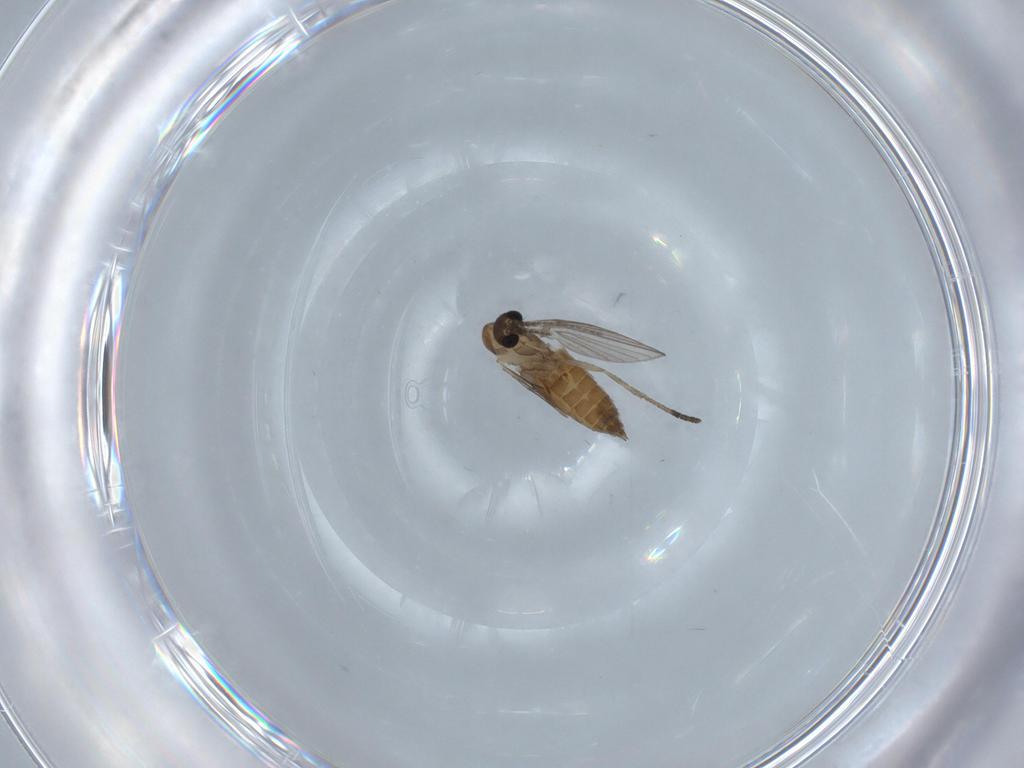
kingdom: Animalia
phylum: Arthropoda
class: Insecta
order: Diptera
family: Psychodidae
